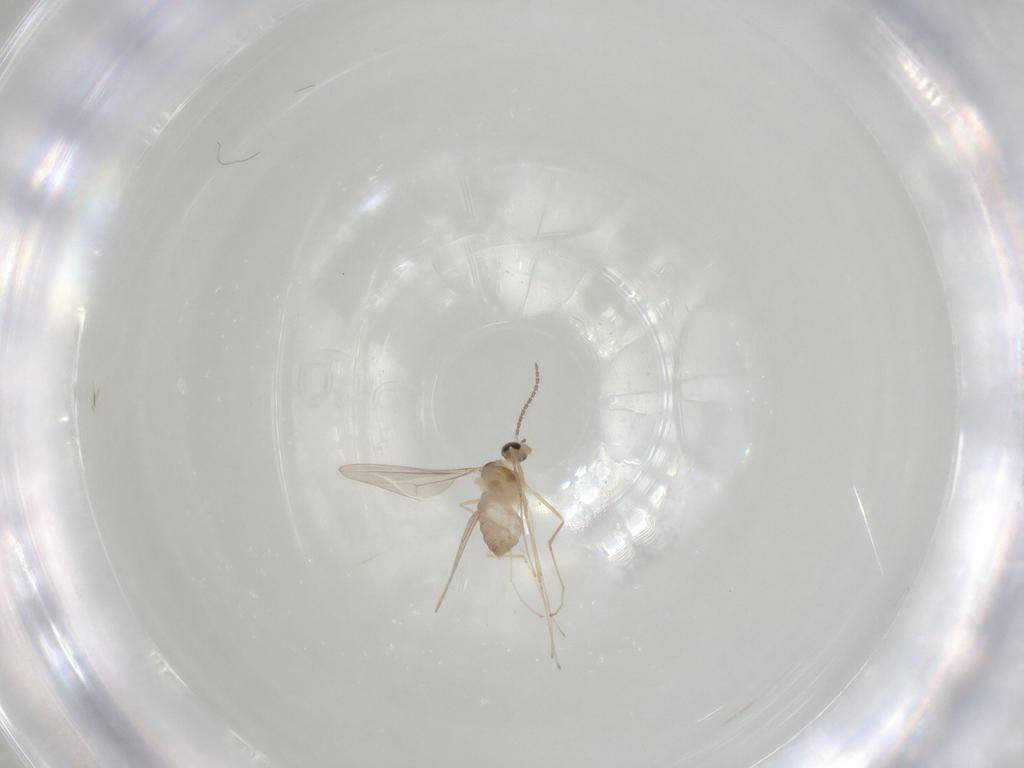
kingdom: Animalia
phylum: Arthropoda
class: Insecta
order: Diptera
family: Cecidomyiidae
